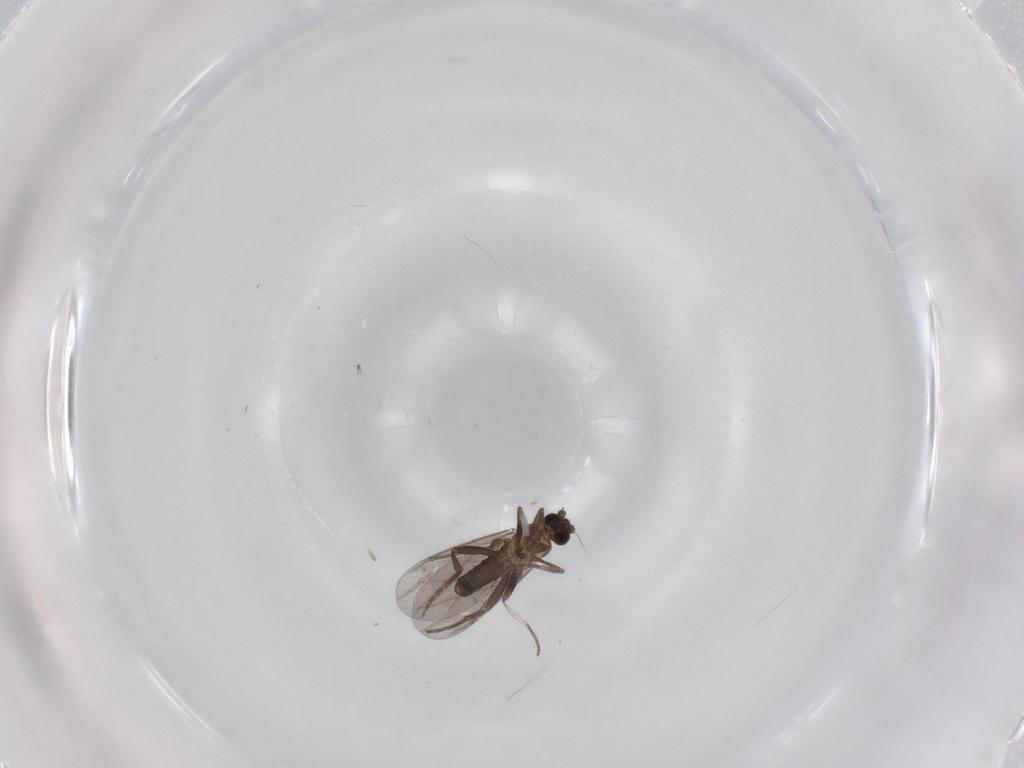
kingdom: Animalia
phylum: Arthropoda
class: Insecta
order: Diptera
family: Phoridae
